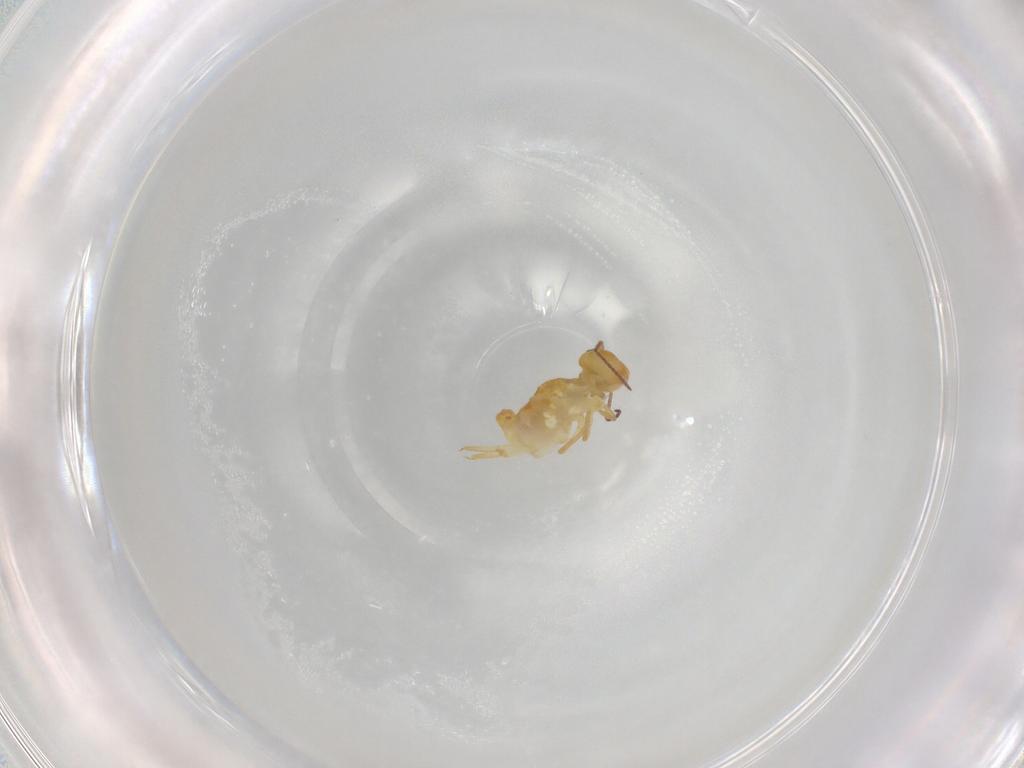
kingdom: Animalia
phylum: Arthropoda
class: Collembola
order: Symphypleona
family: Bourletiellidae
